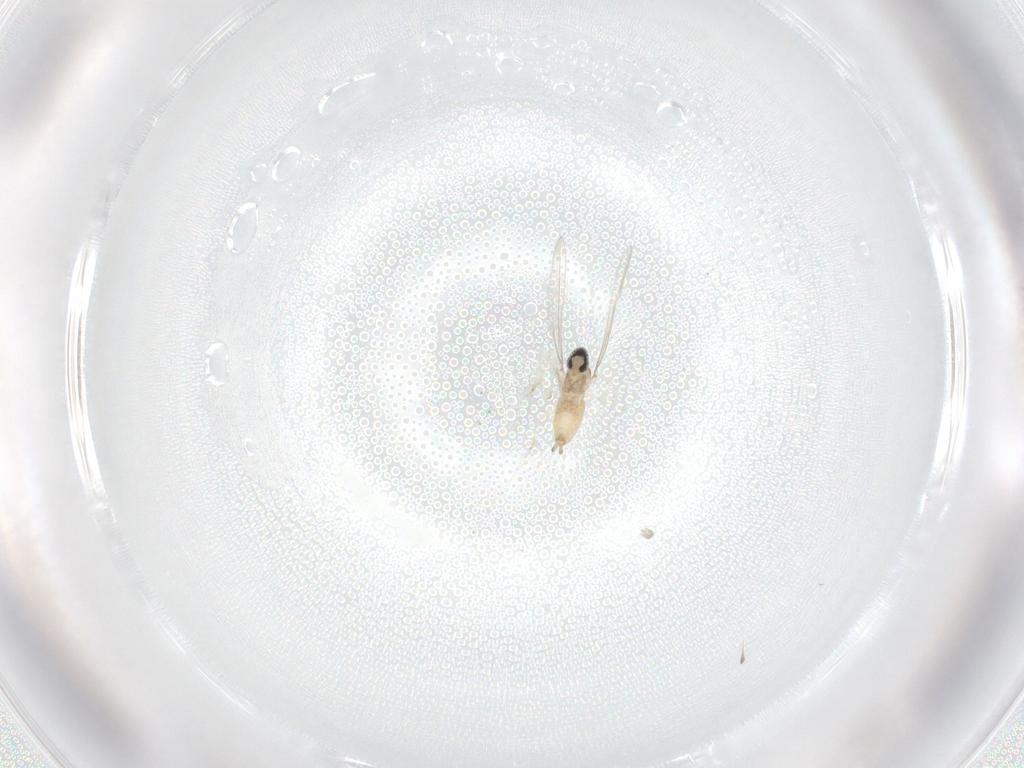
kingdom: Animalia
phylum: Arthropoda
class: Insecta
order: Diptera
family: Cecidomyiidae
